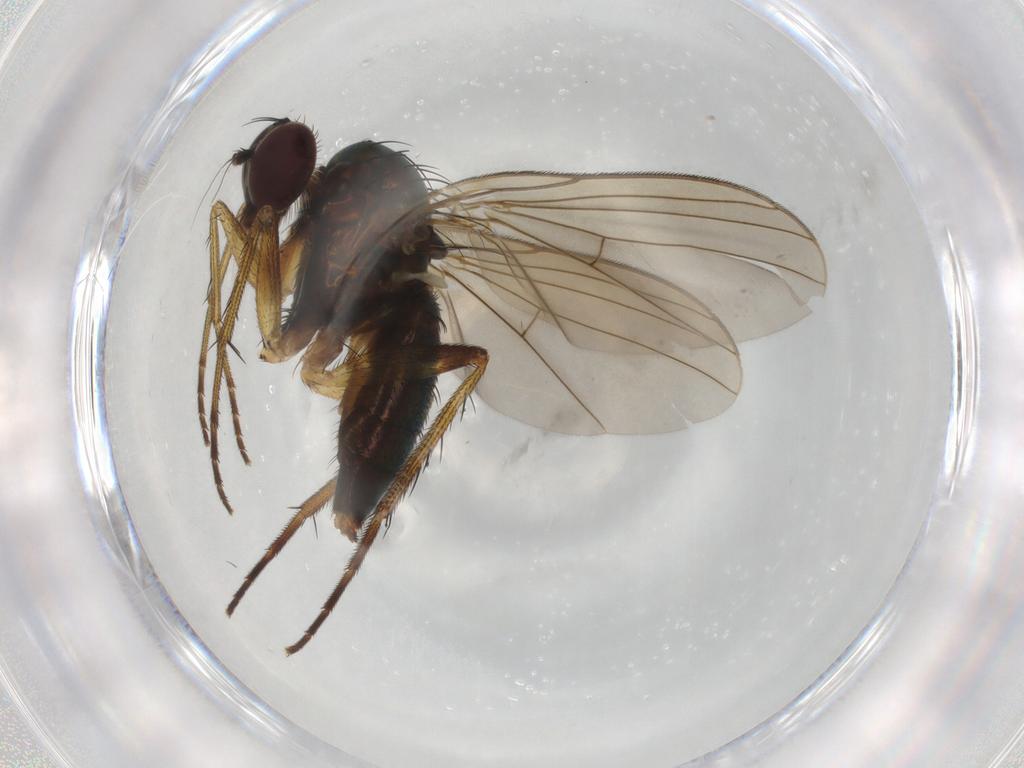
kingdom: Animalia
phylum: Arthropoda
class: Insecta
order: Diptera
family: Dolichopodidae
